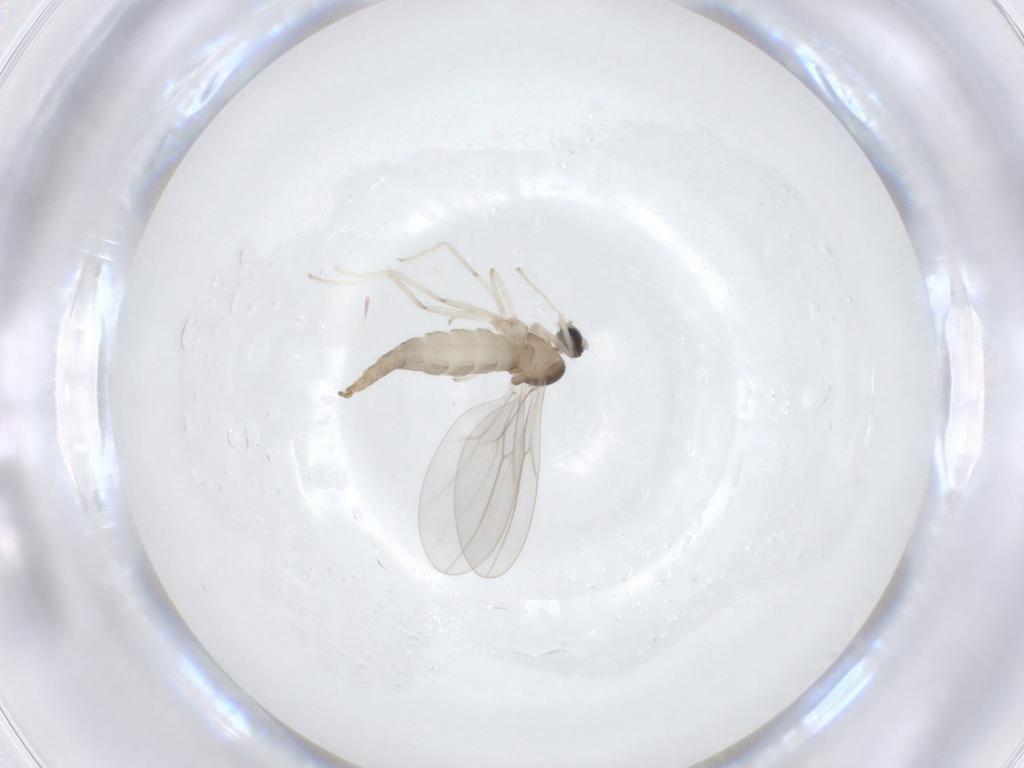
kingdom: Animalia
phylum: Arthropoda
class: Insecta
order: Diptera
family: Cecidomyiidae
